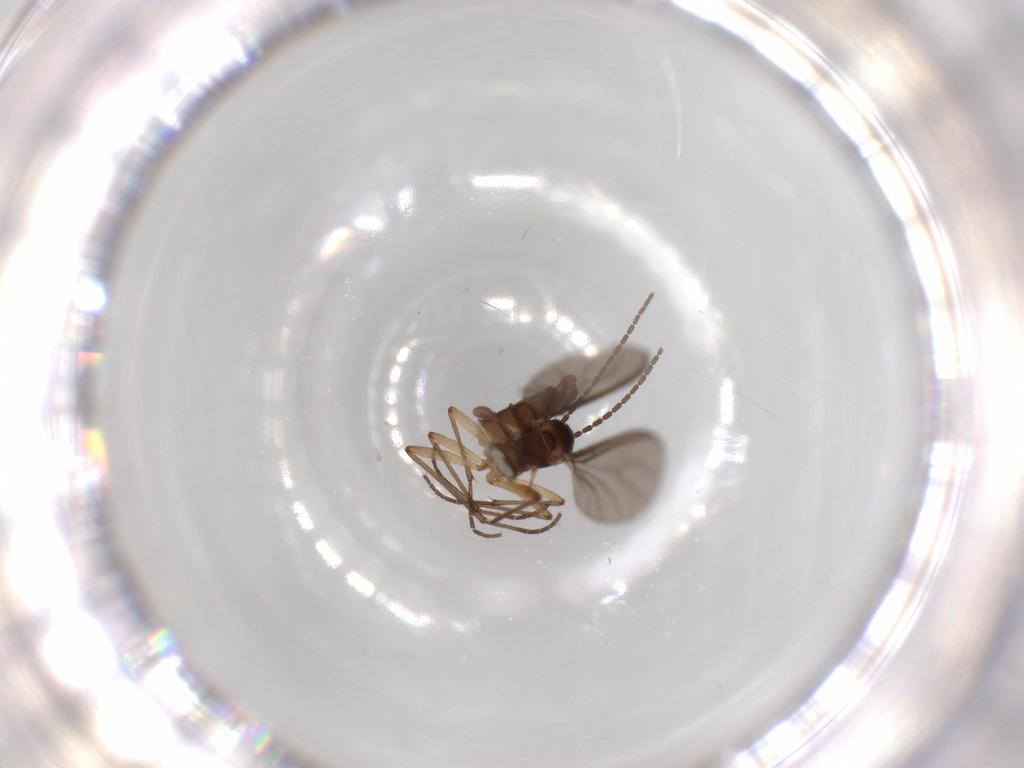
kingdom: Animalia
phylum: Arthropoda
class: Insecta
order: Diptera
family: Sciaridae
